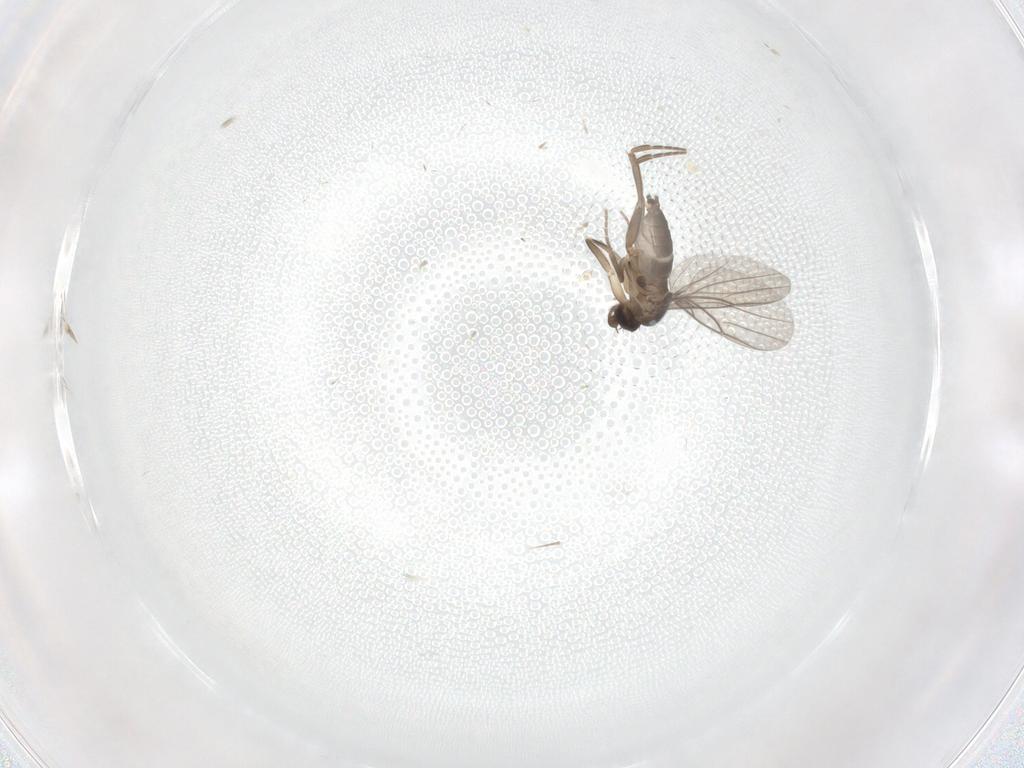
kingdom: Animalia
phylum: Arthropoda
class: Insecta
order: Diptera
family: Phoridae
